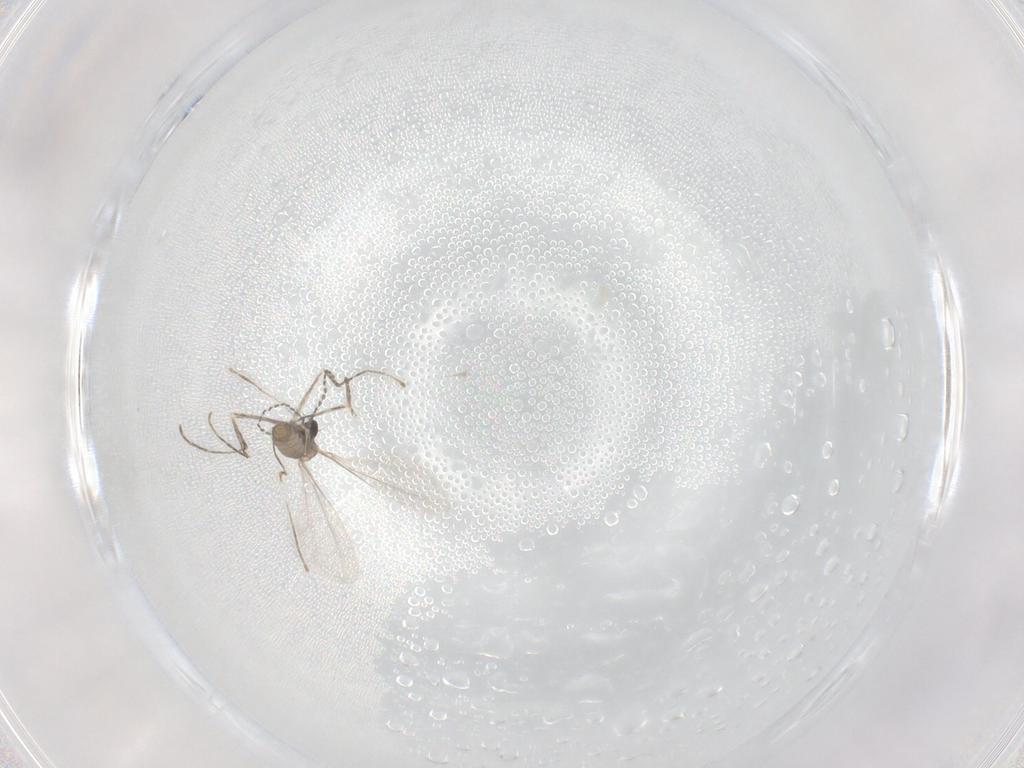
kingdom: Animalia
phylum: Arthropoda
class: Insecta
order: Diptera
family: Cecidomyiidae
